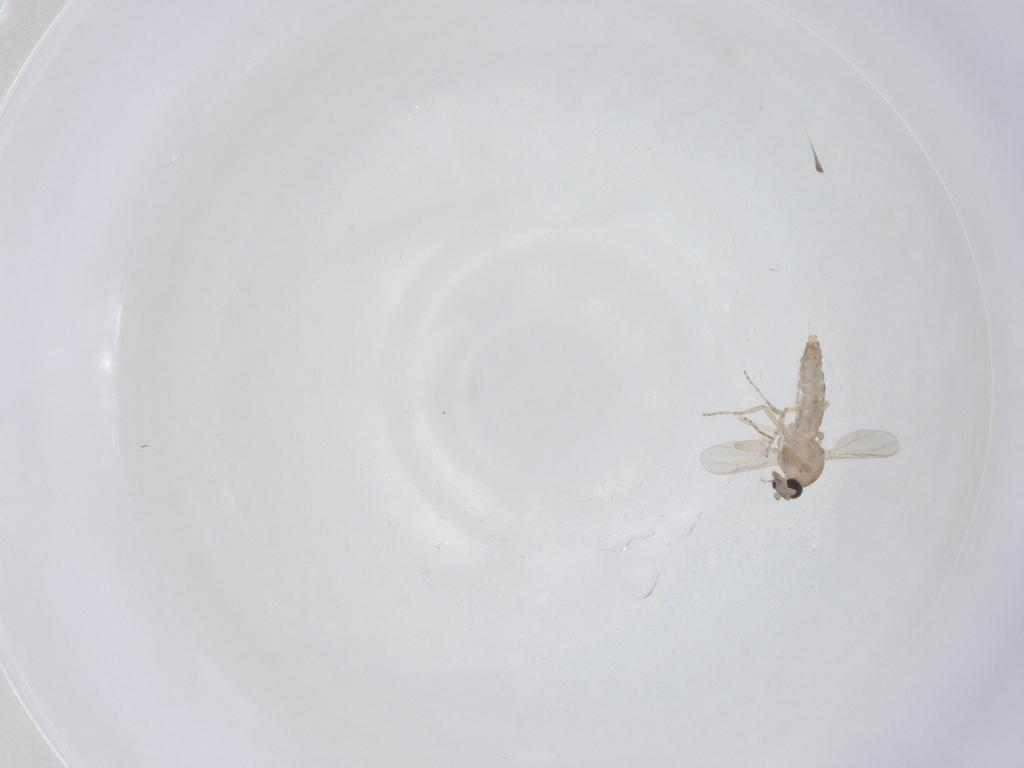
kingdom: Animalia
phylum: Arthropoda
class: Insecta
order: Diptera
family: Ceratopogonidae
